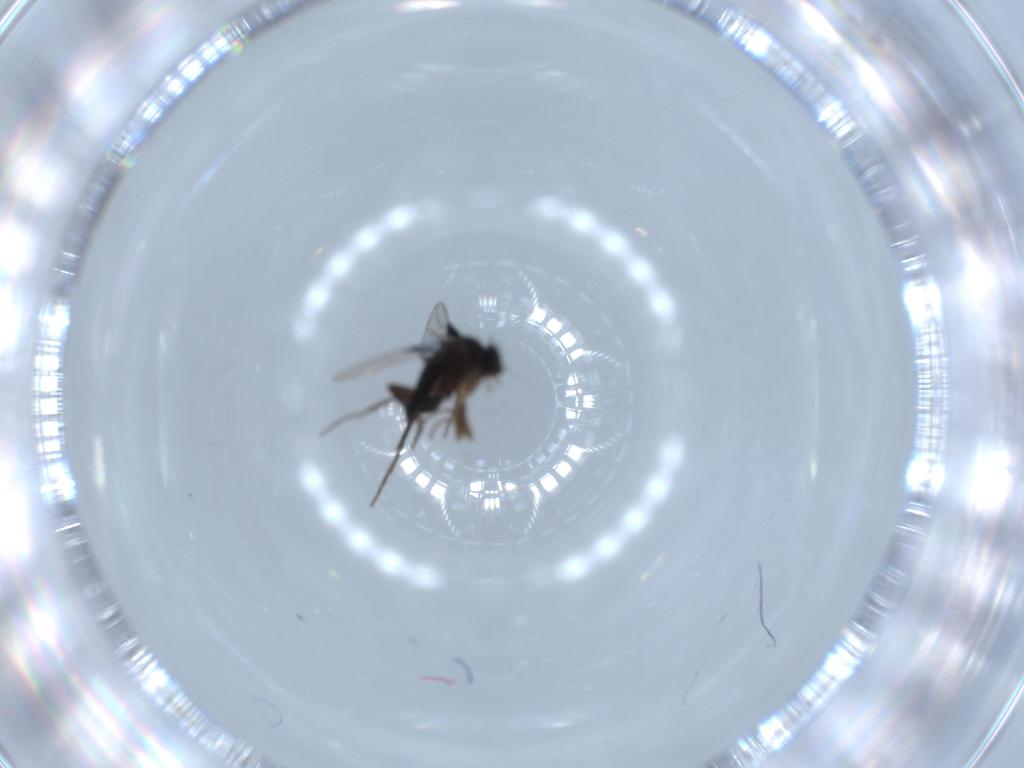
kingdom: Animalia
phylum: Arthropoda
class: Insecta
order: Diptera
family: Phoridae
